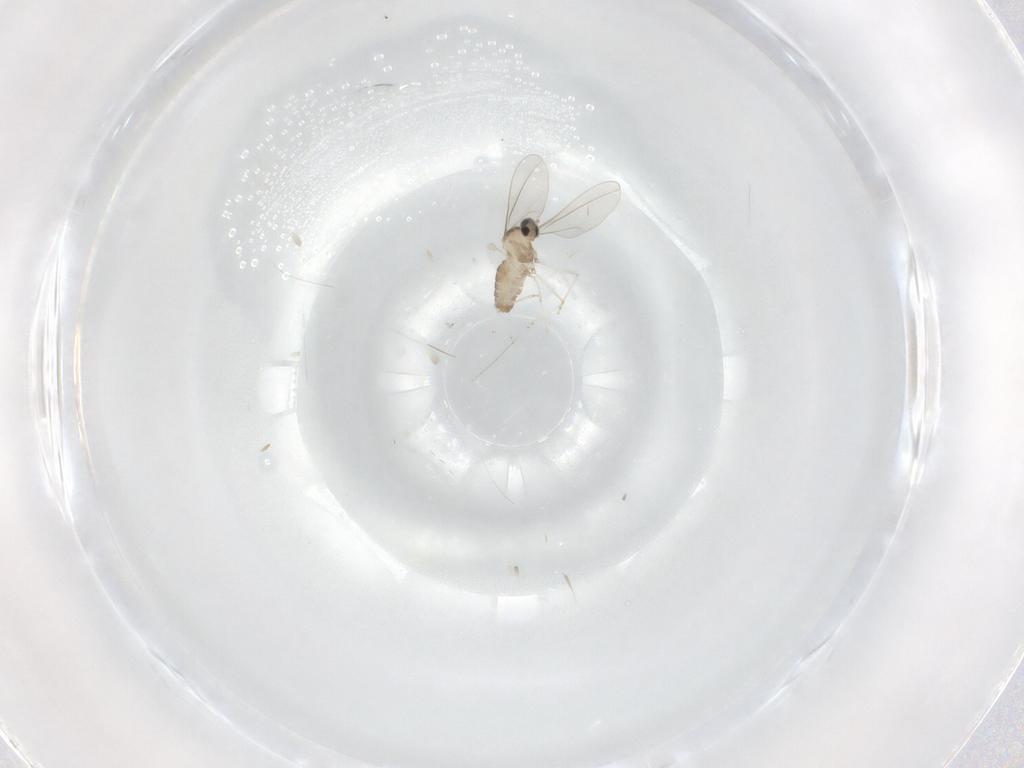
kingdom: Animalia
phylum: Arthropoda
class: Insecta
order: Diptera
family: Cecidomyiidae
